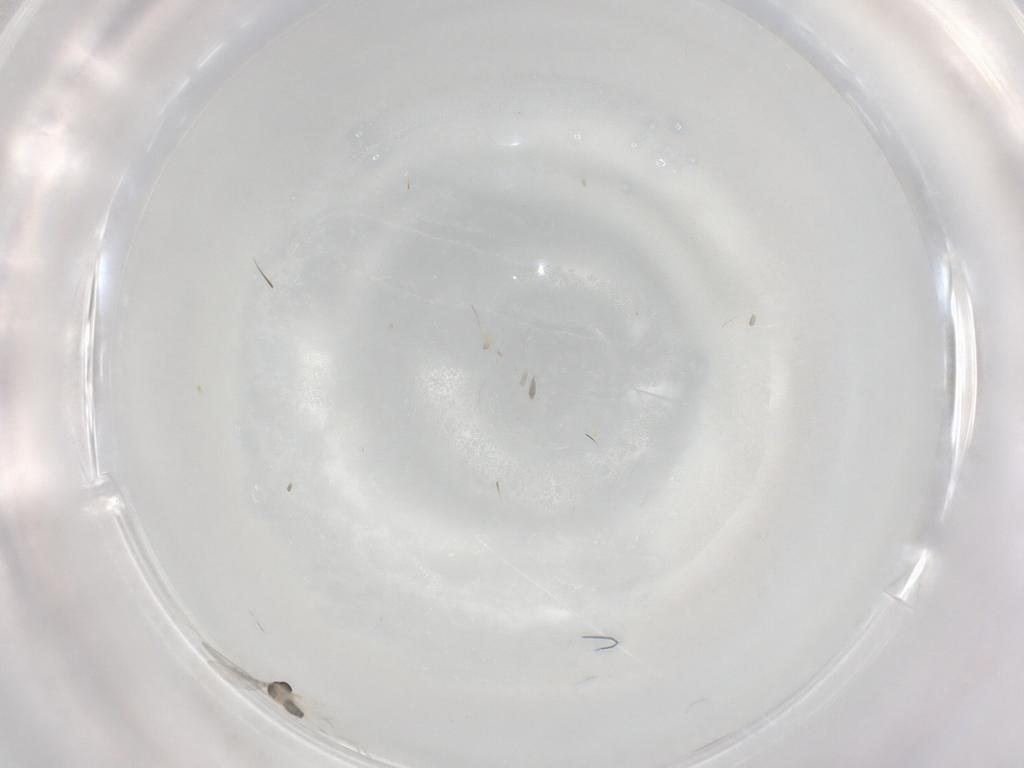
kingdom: Animalia
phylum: Arthropoda
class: Insecta
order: Diptera
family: Cecidomyiidae
